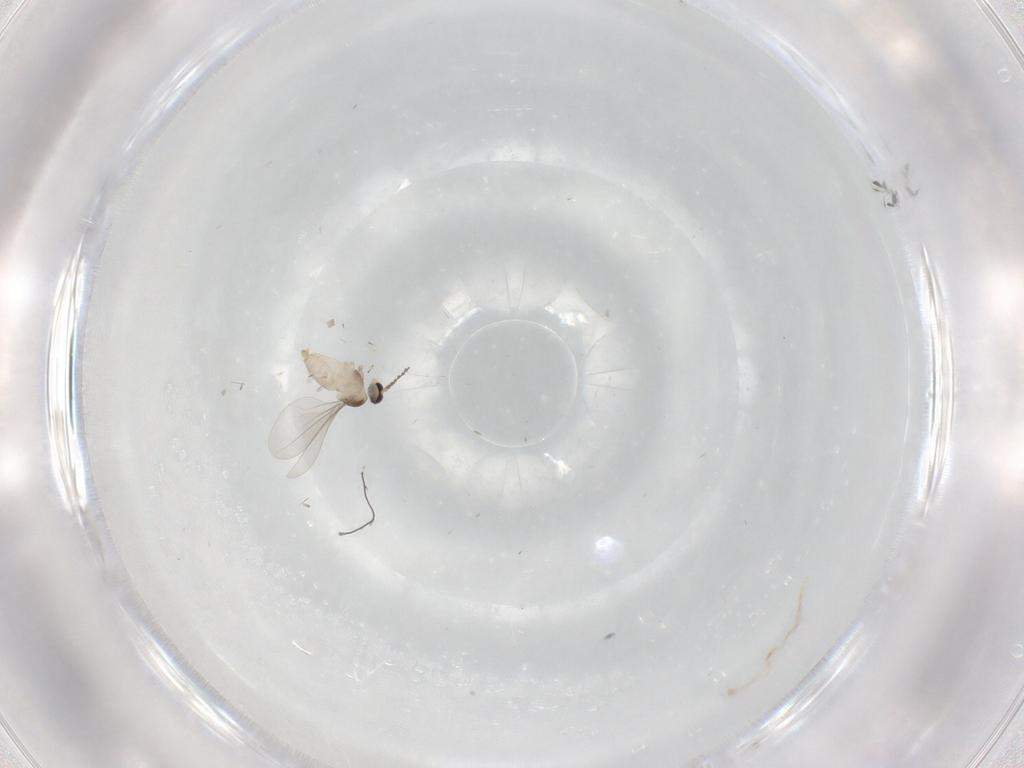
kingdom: Animalia
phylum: Arthropoda
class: Insecta
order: Diptera
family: Cecidomyiidae
